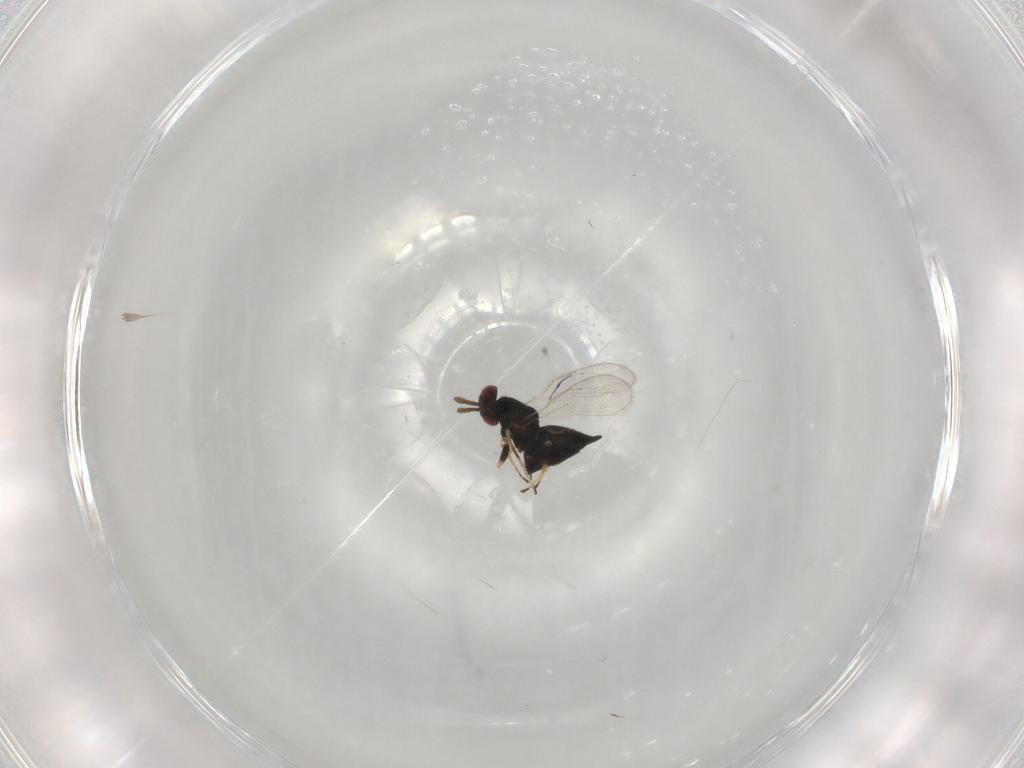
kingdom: Animalia
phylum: Arthropoda
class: Insecta
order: Hymenoptera
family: Eulophidae
